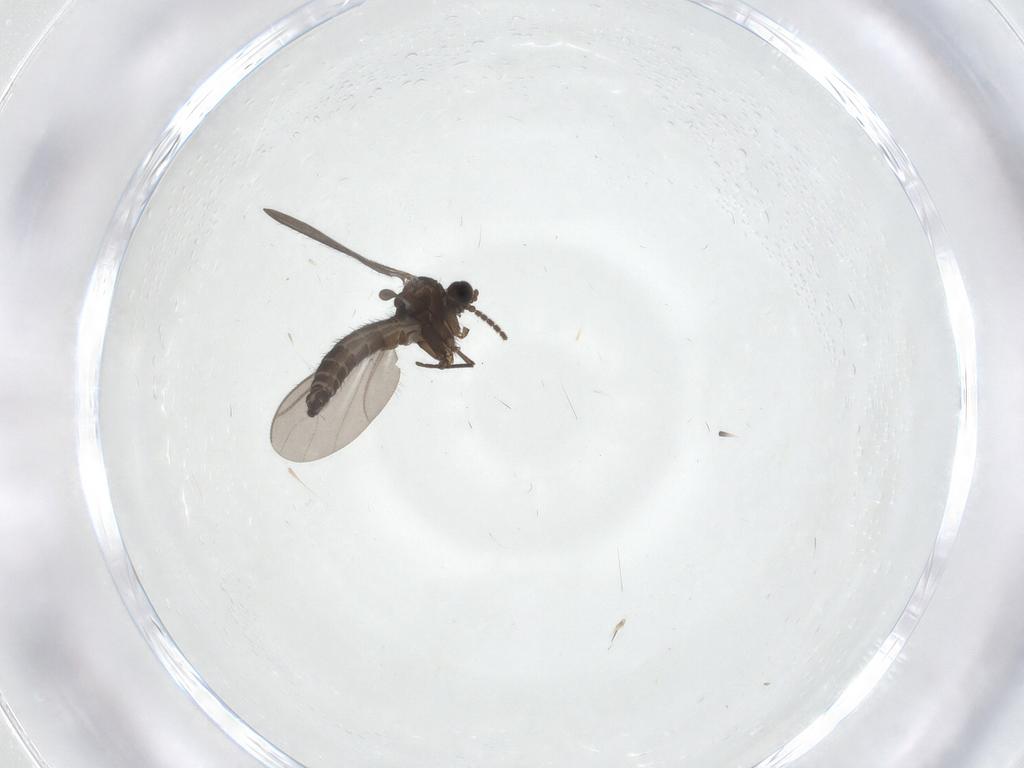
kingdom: Animalia
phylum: Arthropoda
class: Insecta
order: Diptera
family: Sciaridae
